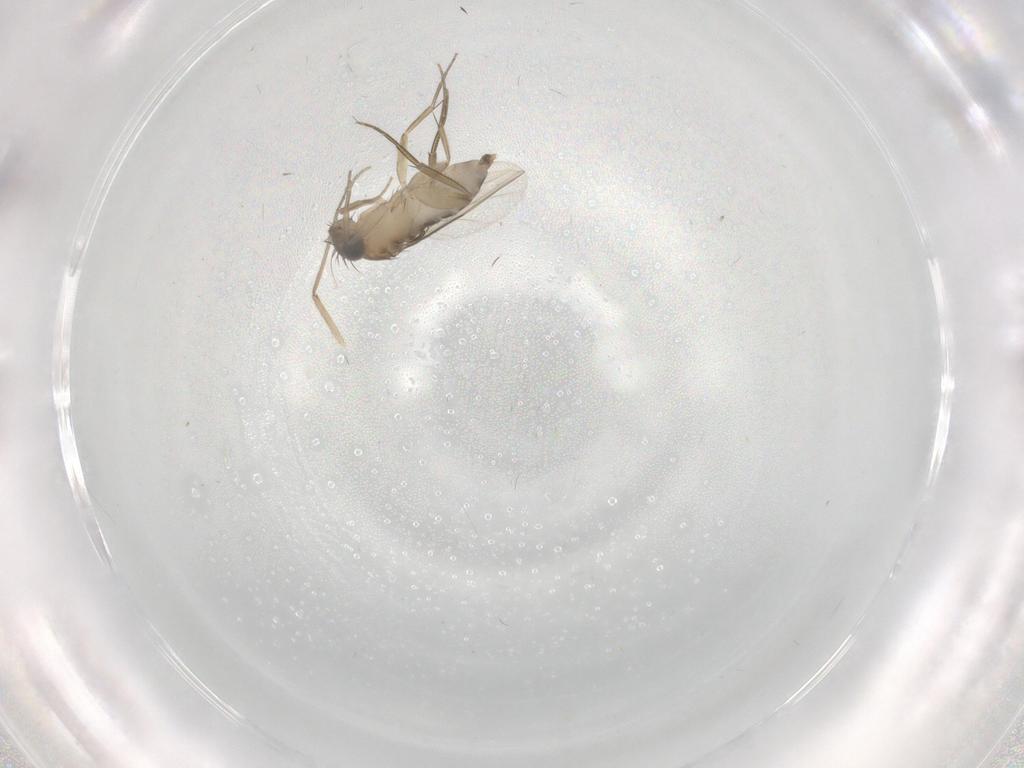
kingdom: Animalia
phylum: Arthropoda
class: Insecta
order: Diptera
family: Phoridae
